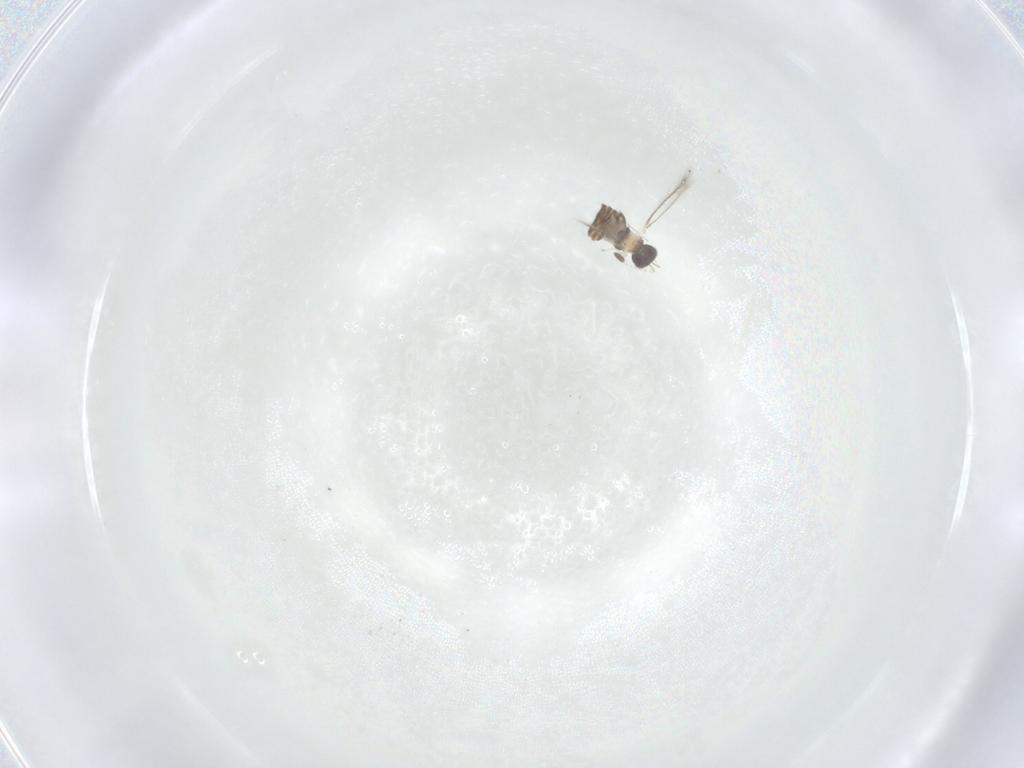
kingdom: Animalia
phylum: Arthropoda
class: Insecta
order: Hymenoptera
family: Mymaridae
